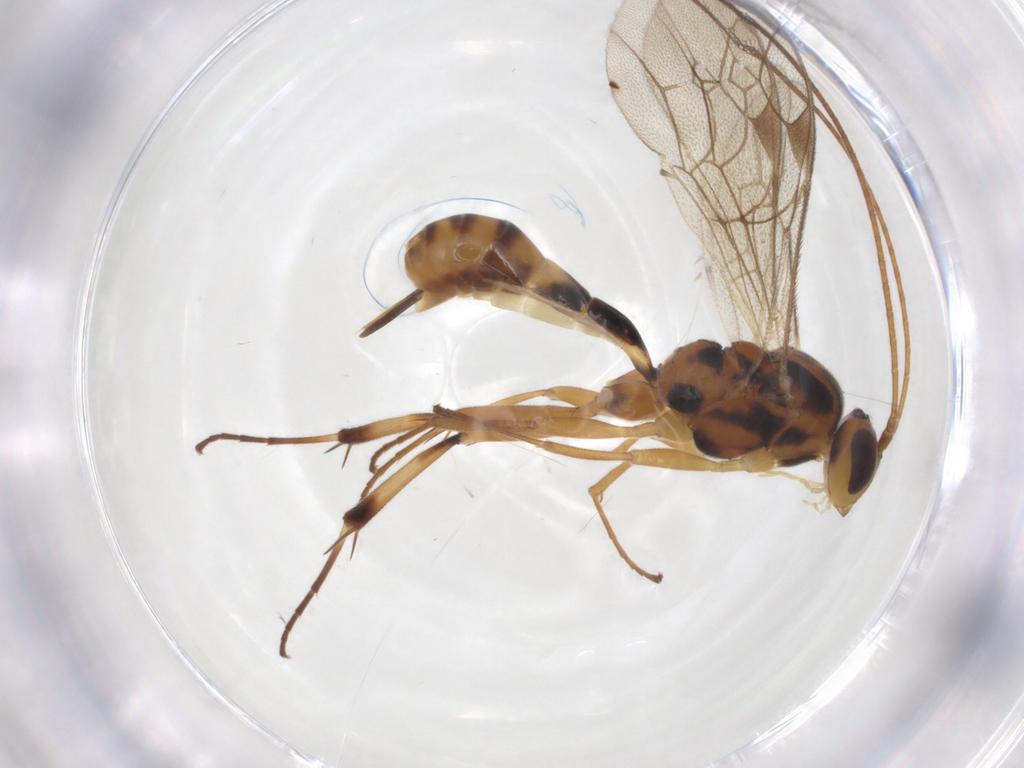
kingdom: Animalia
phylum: Arthropoda
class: Insecta
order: Hymenoptera
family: Ichneumonidae
